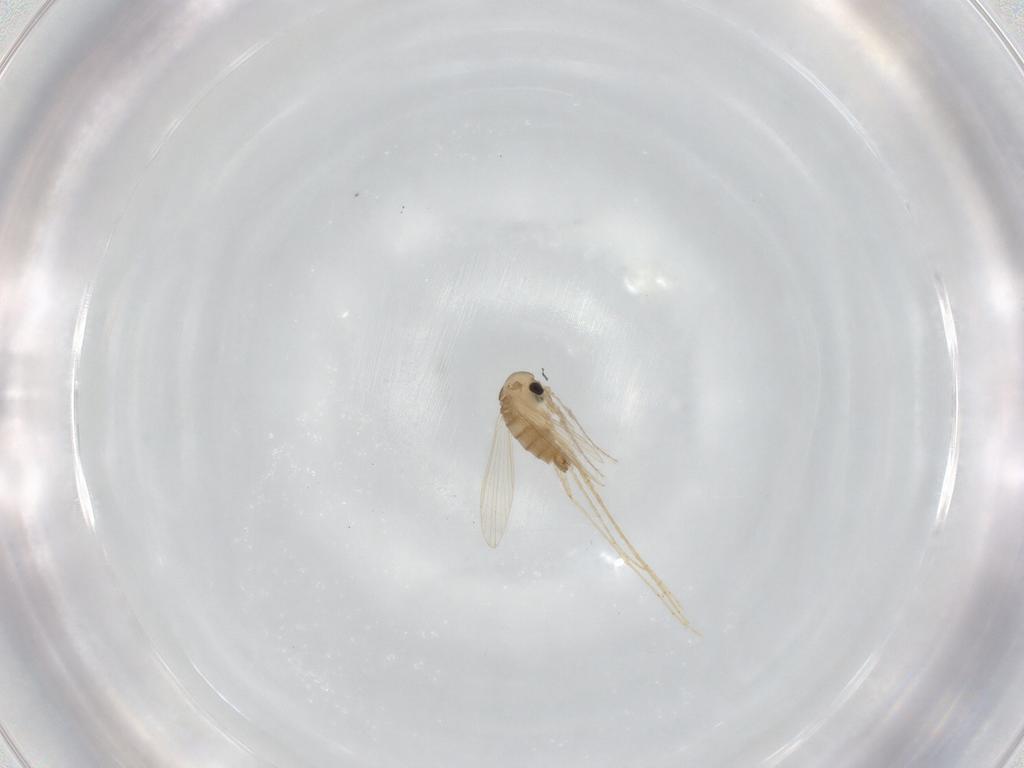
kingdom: Animalia
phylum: Arthropoda
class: Insecta
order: Diptera
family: Psychodidae
